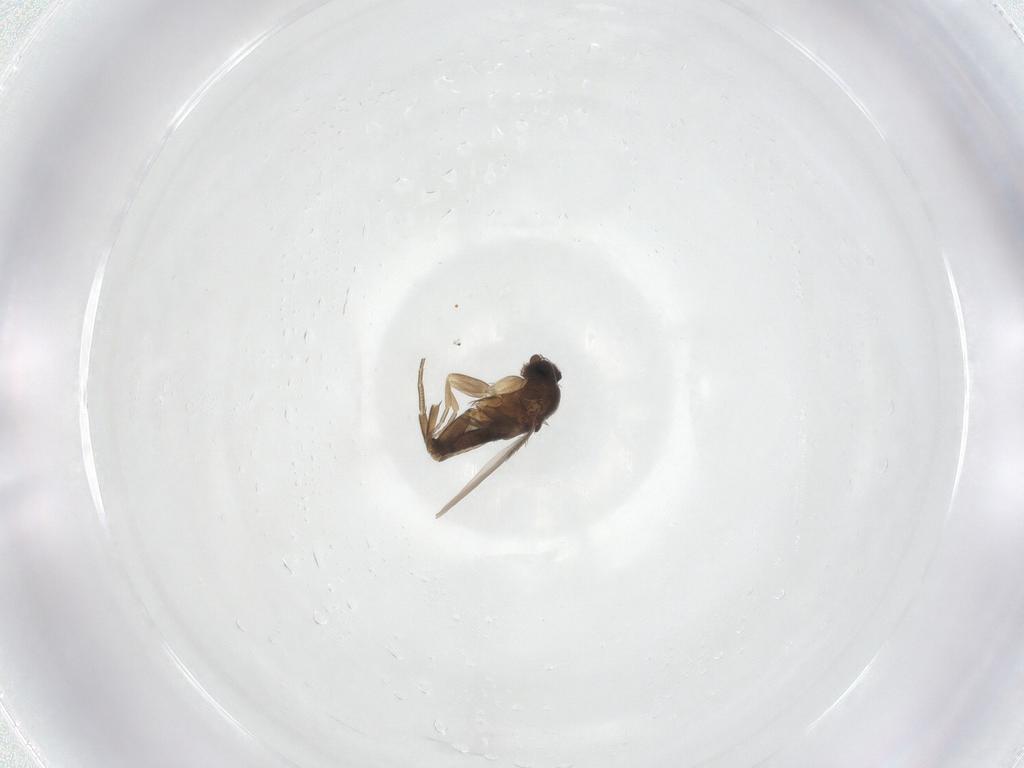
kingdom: Animalia
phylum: Arthropoda
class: Insecta
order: Diptera
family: Phoridae
